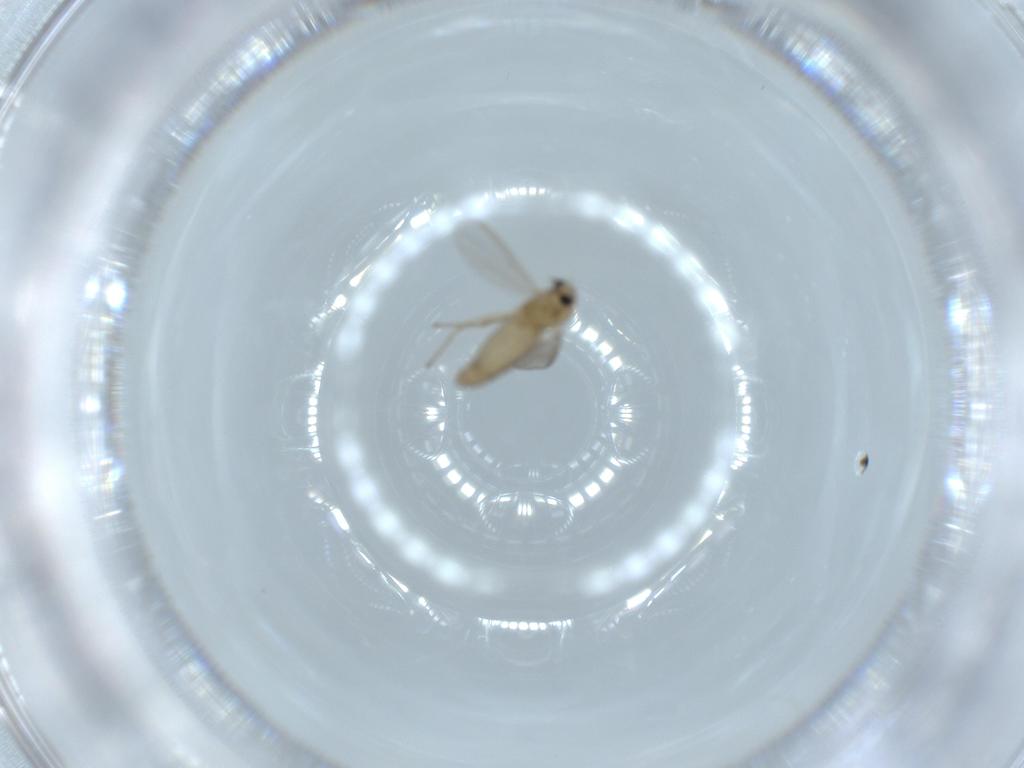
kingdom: Animalia
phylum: Arthropoda
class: Insecta
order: Diptera
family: Chironomidae
